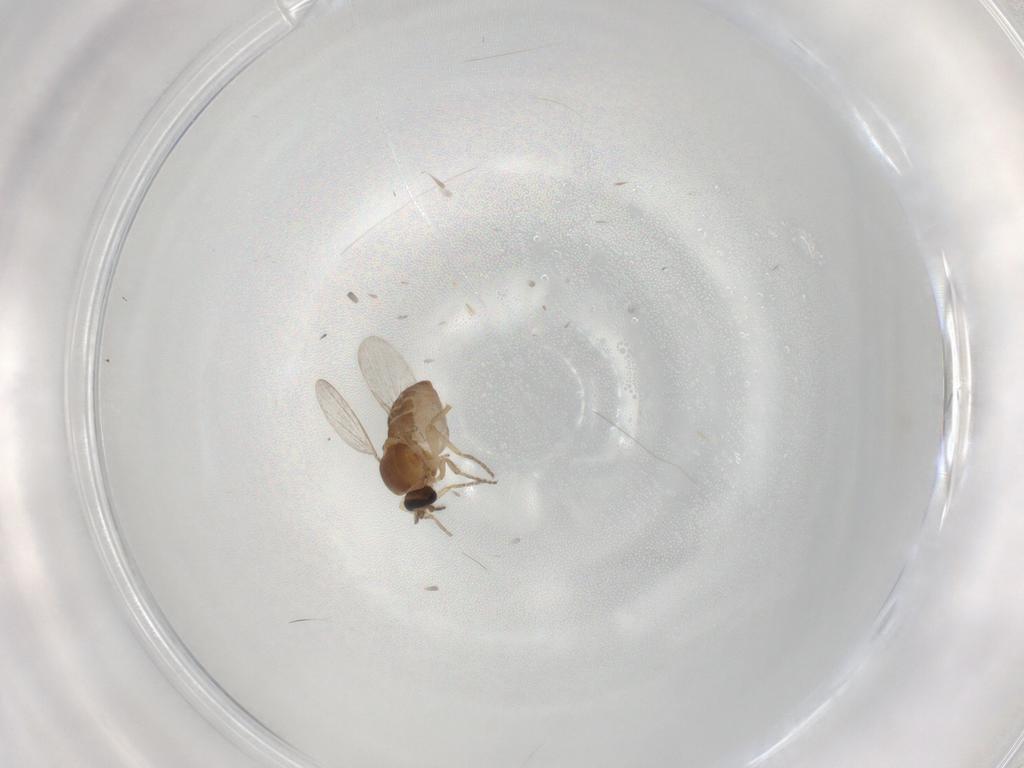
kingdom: Animalia
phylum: Arthropoda
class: Insecta
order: Diptera
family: Ceratopogonidae
